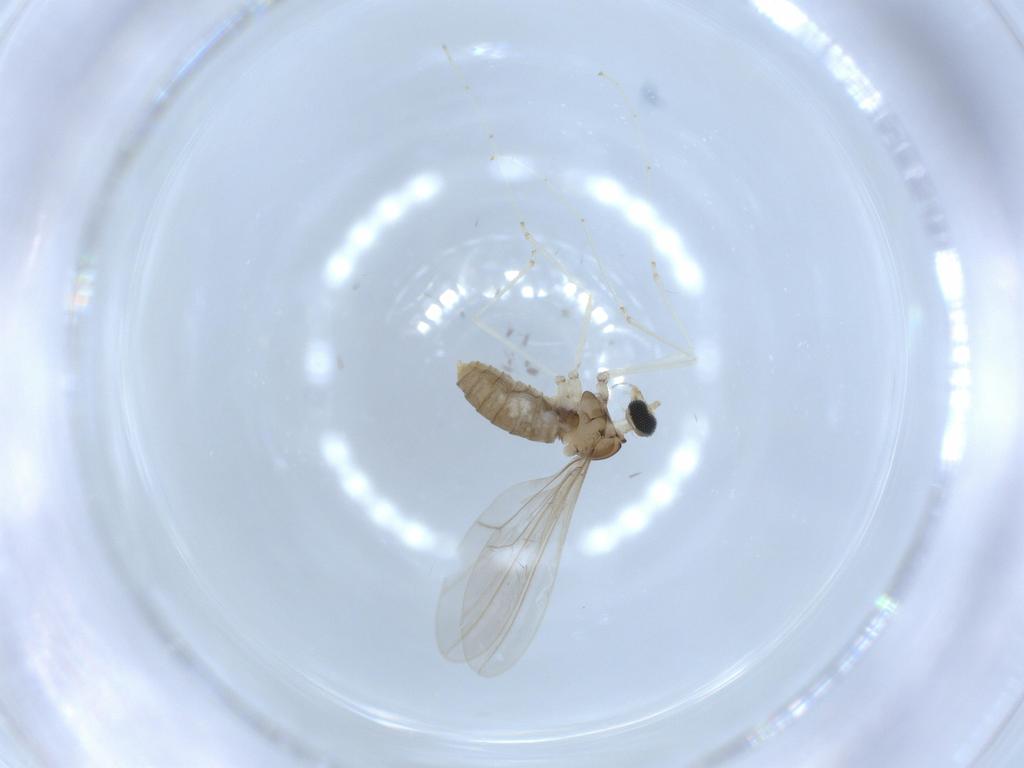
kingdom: Animalia
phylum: Arthropoda
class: Insecta
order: Diptera
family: Cecidomyiidae
